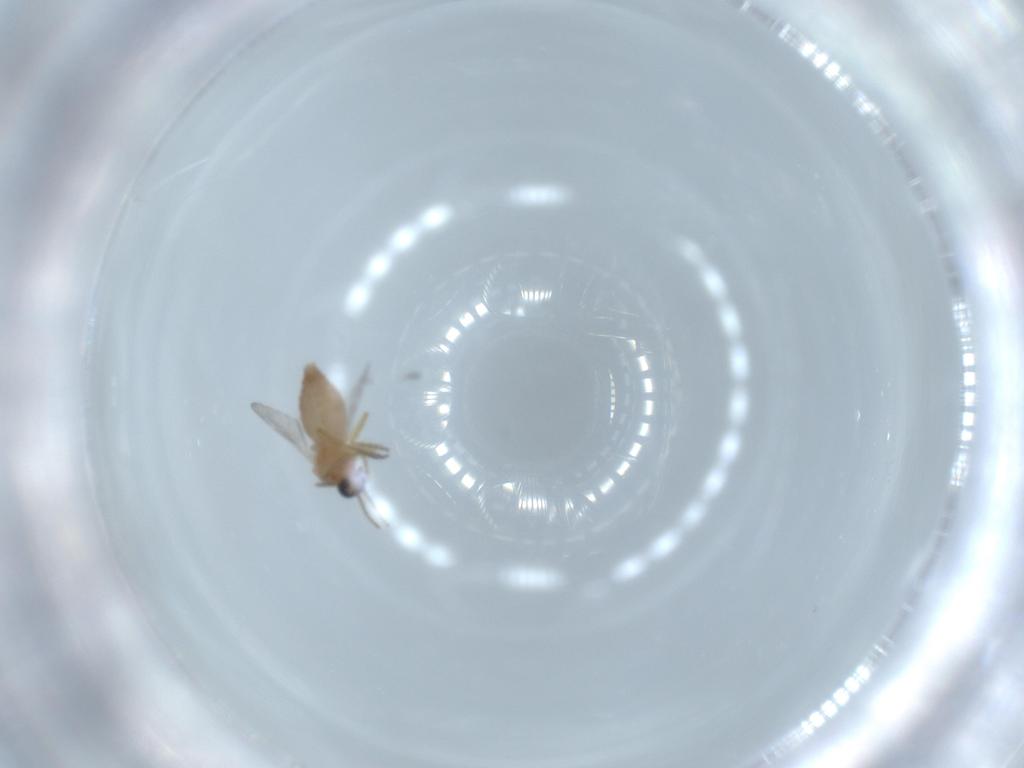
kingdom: Animalia
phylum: Arthropoda
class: Insecta
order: Diptera
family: Ceratopogonidae
